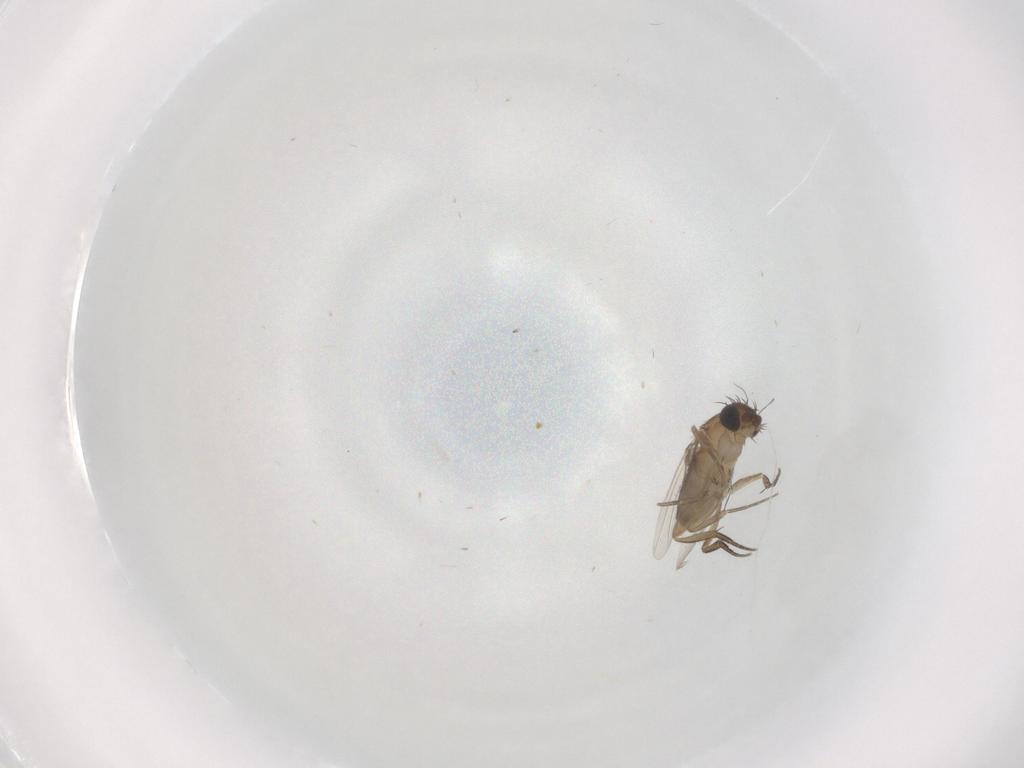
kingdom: Animalia
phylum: Arthropoda
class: Insecta
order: Diptera
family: Phoridae
